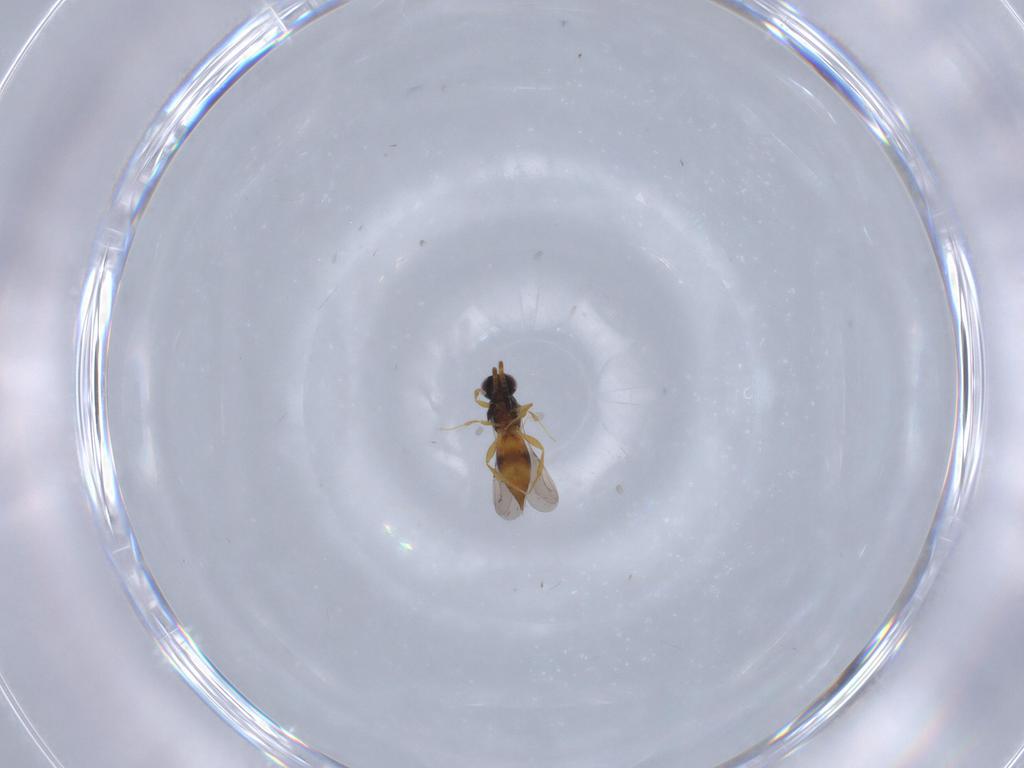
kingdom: Animalia
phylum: Arthropoda
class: Insecta
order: Hymenoptera
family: Ceraphronidae
